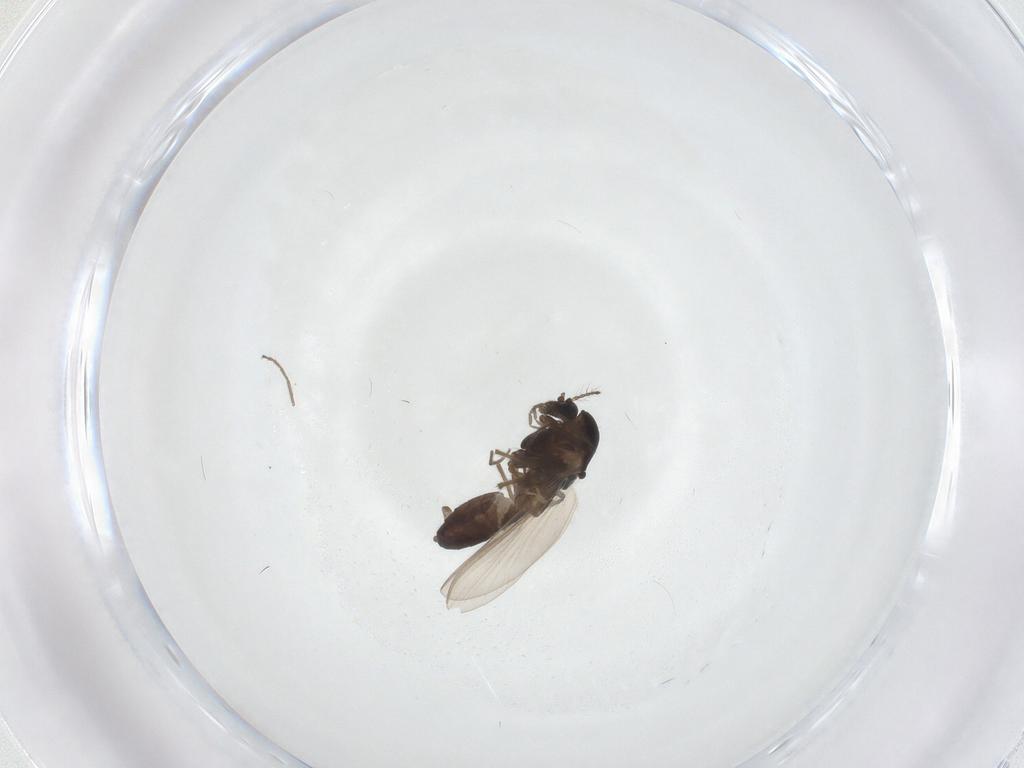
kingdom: Animalia
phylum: Arthropoda
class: Insecta
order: Diptera
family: Chironomidae
